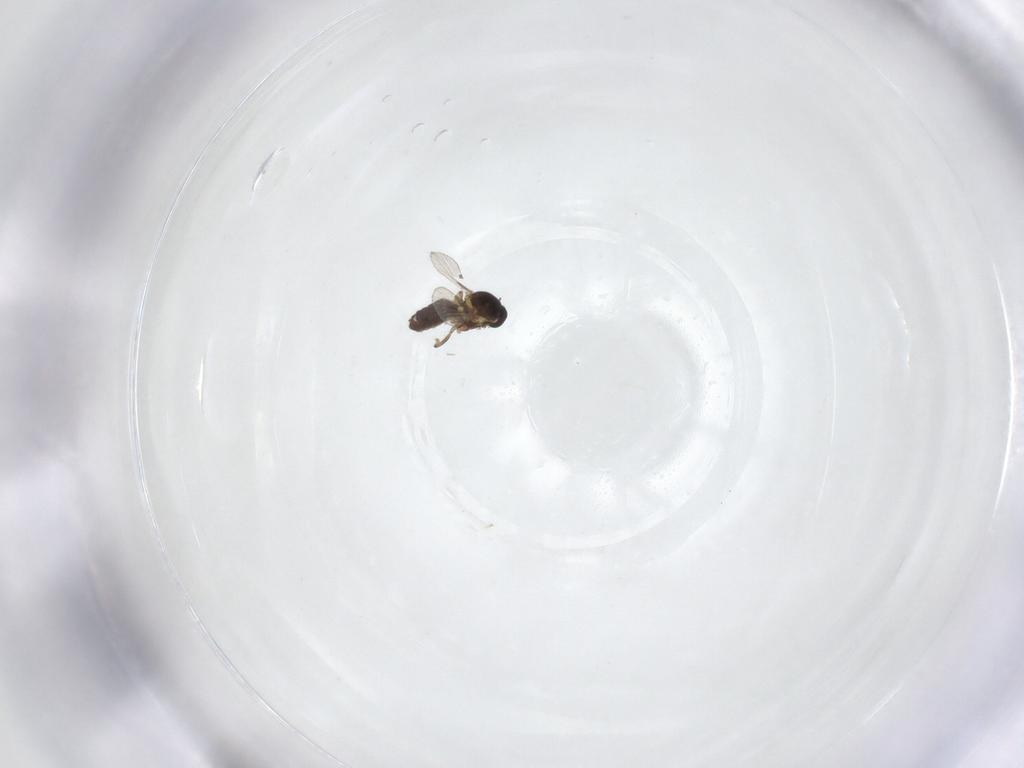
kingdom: Animalia
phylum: Arthropoda
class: Insecta
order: Diptera
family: Ceratopogonidae
